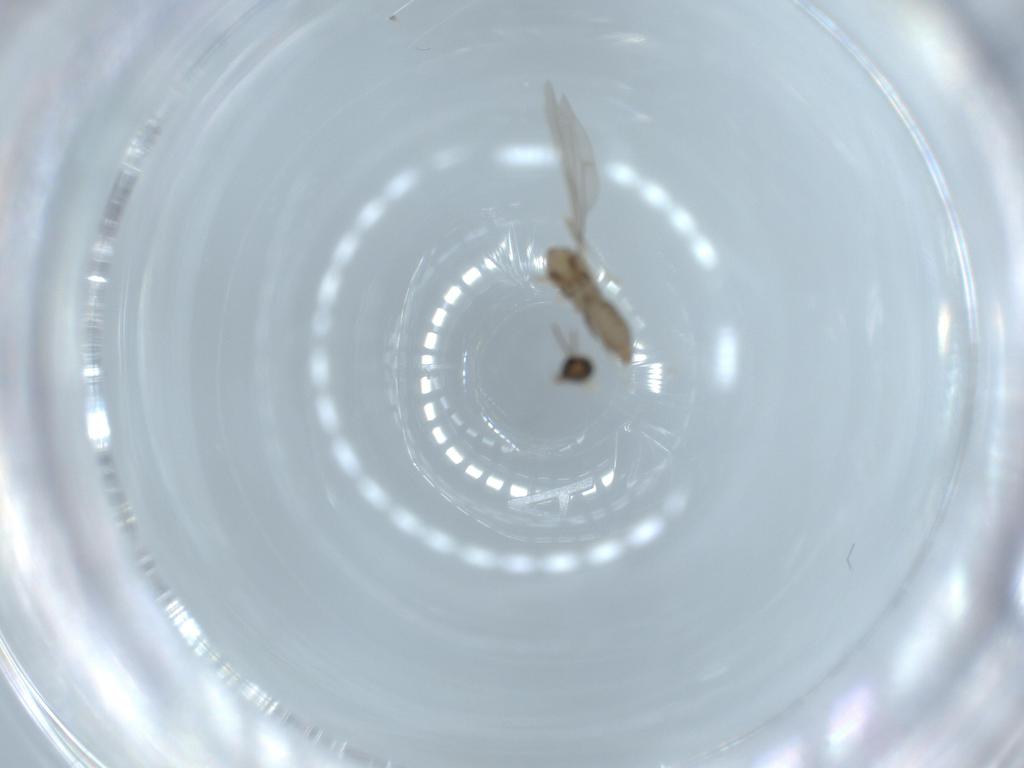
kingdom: Animalia
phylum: Arthropoda
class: Insecta
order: Diptera
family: Cecidomyiidae
